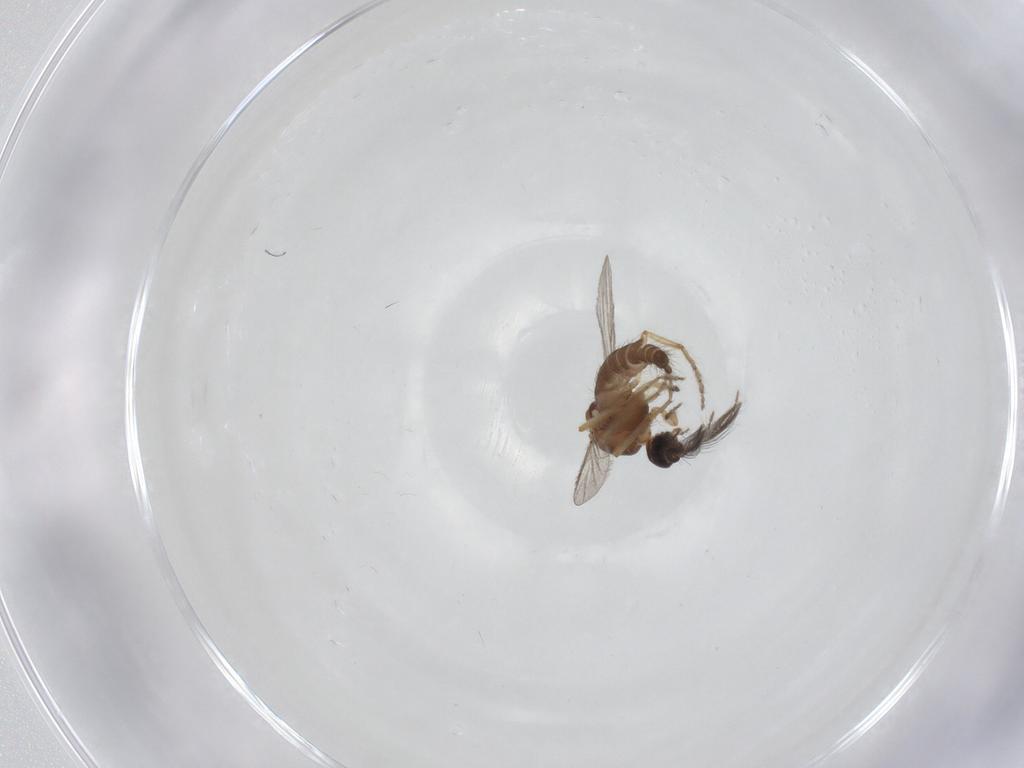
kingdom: Animalia
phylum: Arthropoda
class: Insecta
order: Diptera
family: Ceratopogonidae
